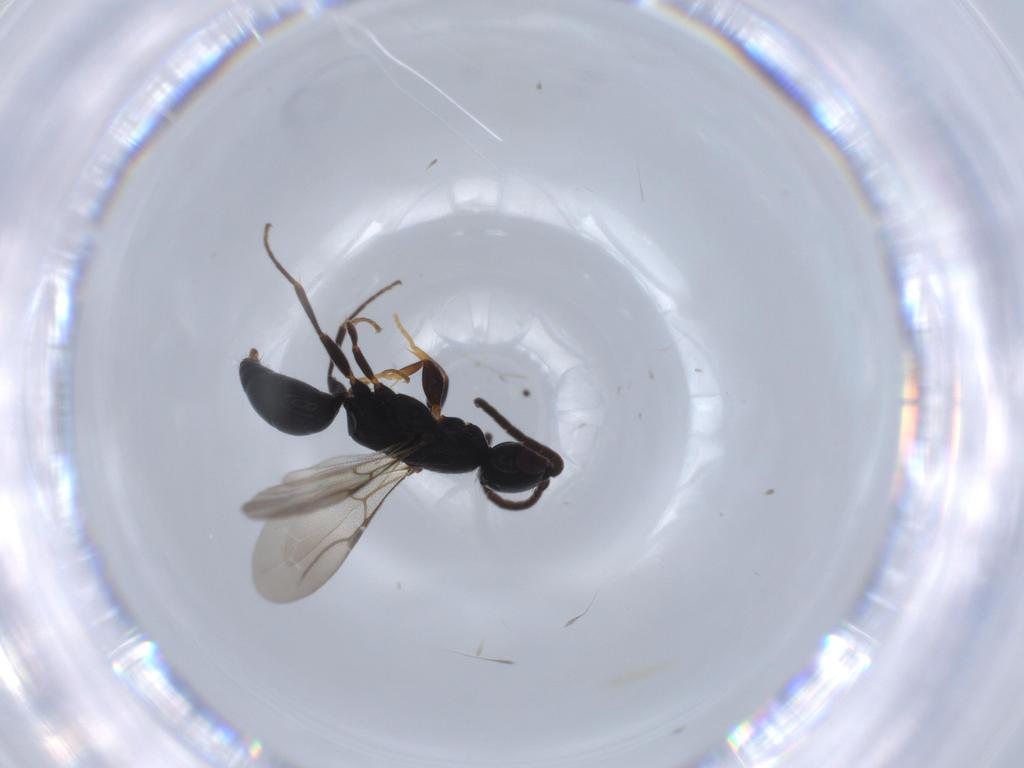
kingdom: Animalia
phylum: Arthropoda
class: Insecta
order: Hymenoptera
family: Bethylidae
